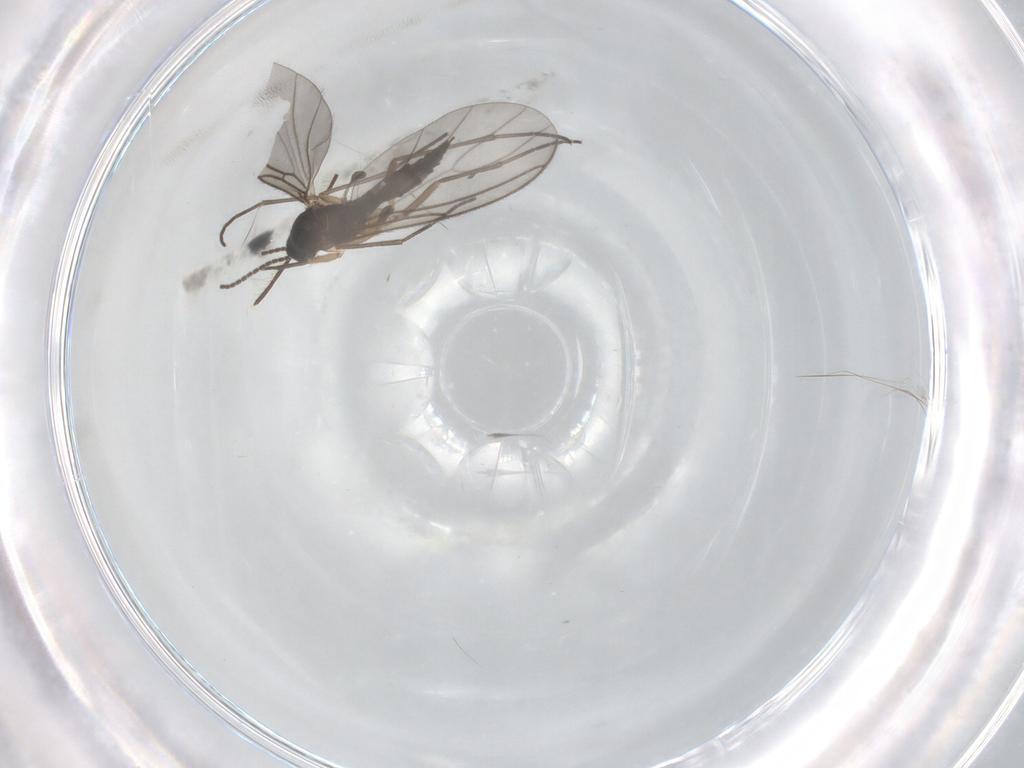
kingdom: Animalia
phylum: Arthropoda
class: Insecta
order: Diptera
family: Sciaridae
